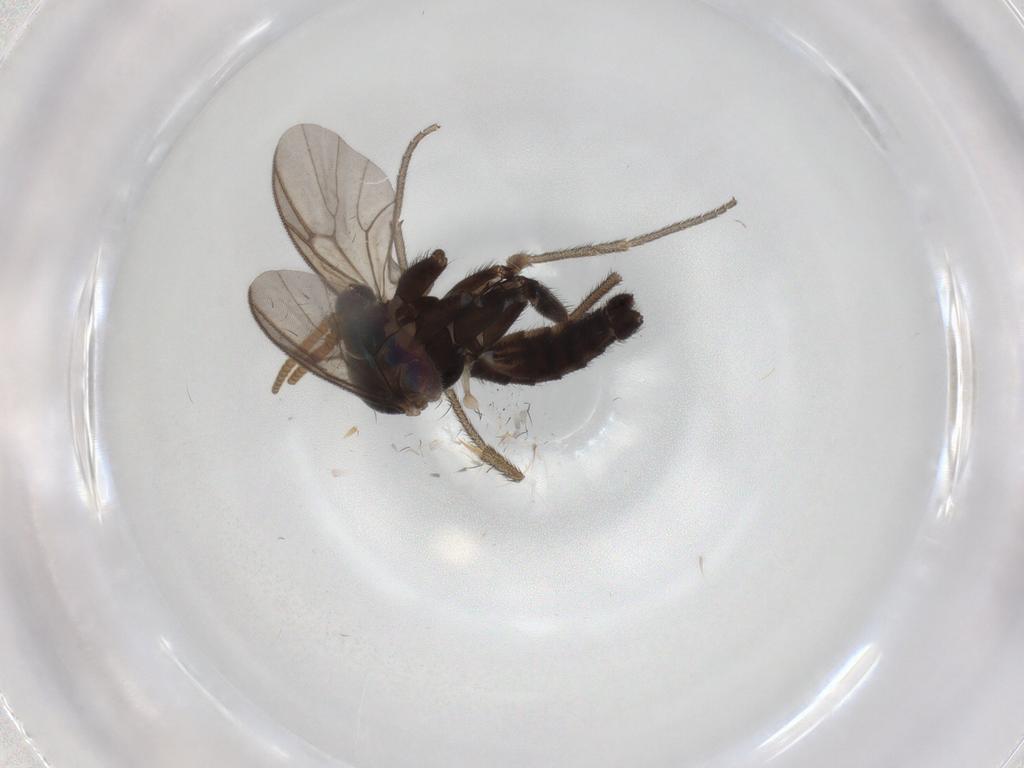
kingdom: Animalia
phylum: Arthropoda
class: Insecta
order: Diptera
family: Mycetophilidae
